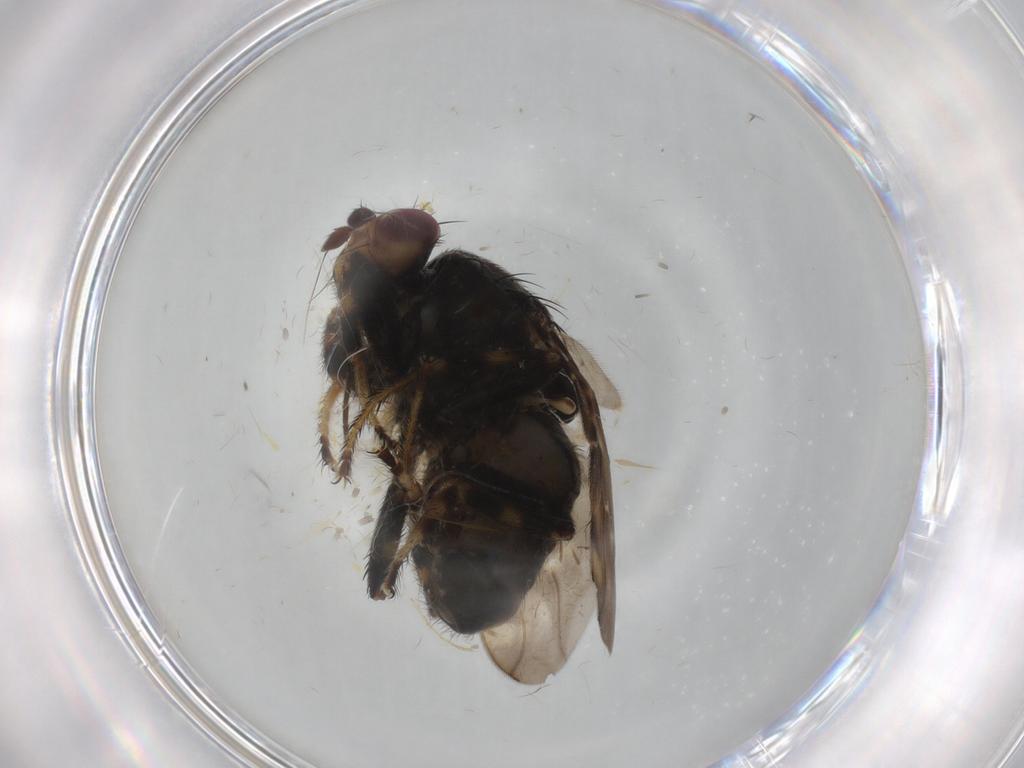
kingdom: Animalia
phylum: Arthropoda
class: Insecta
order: Diptera
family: Sphaeroceridae
